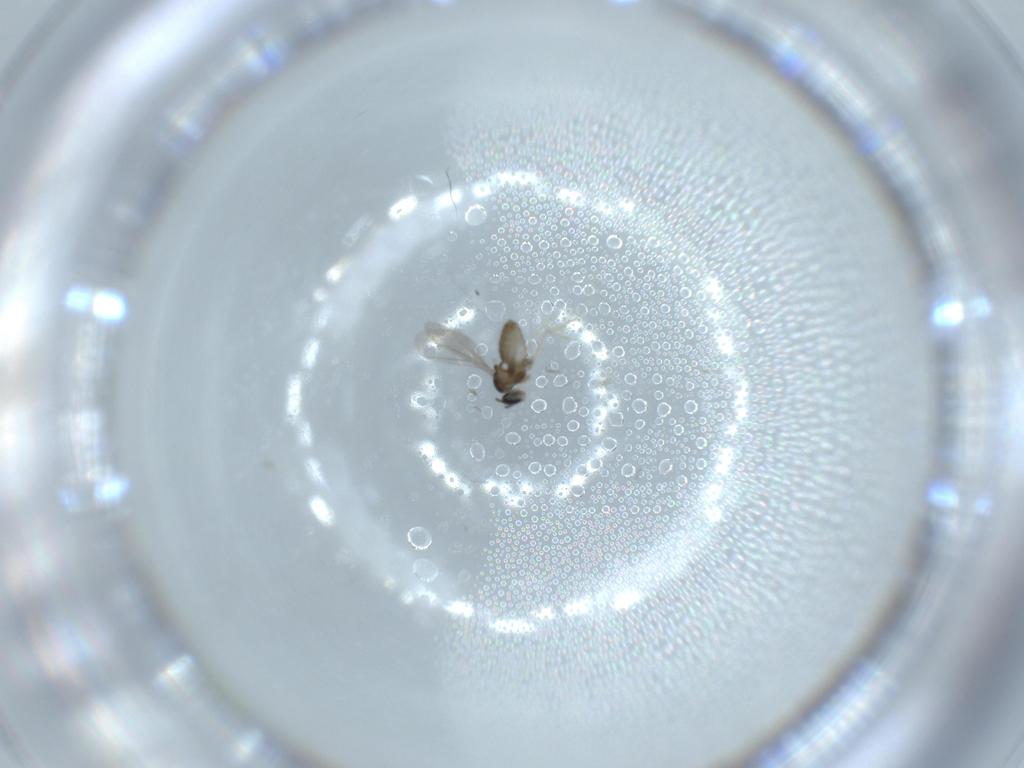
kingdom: Animalia
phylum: Arthropoda
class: Insecta
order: Diptera
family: Cecidomyiidae
